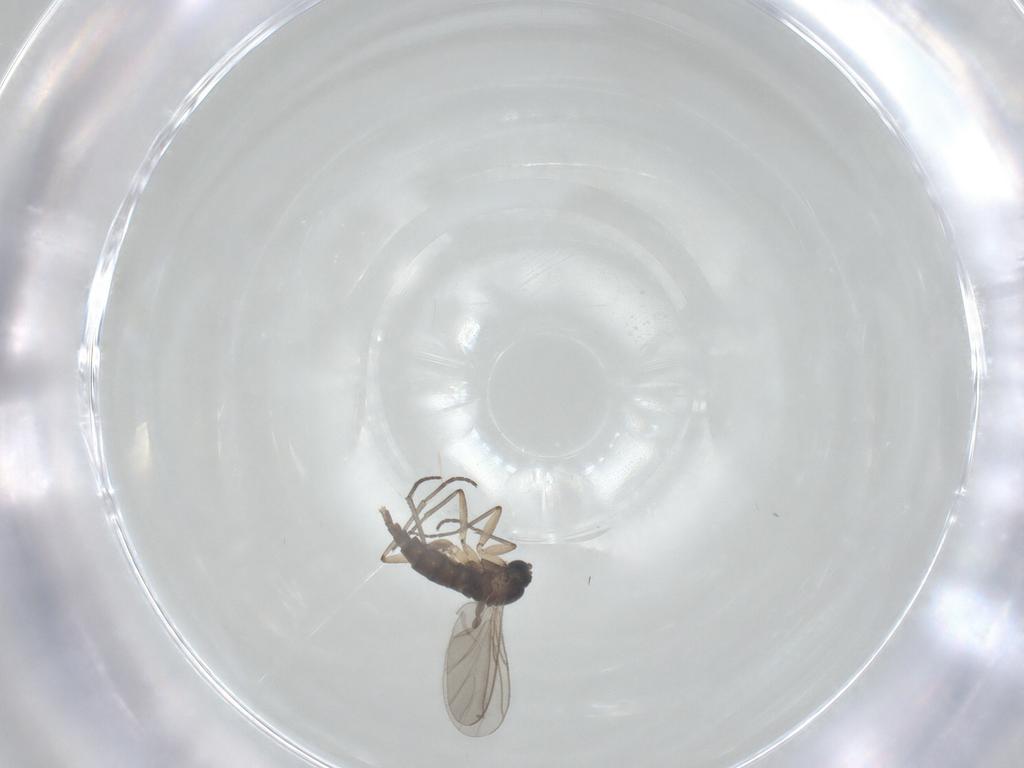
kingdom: Animalia
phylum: Arthropoda
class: Insecta
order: Diptera
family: Sciaridae
